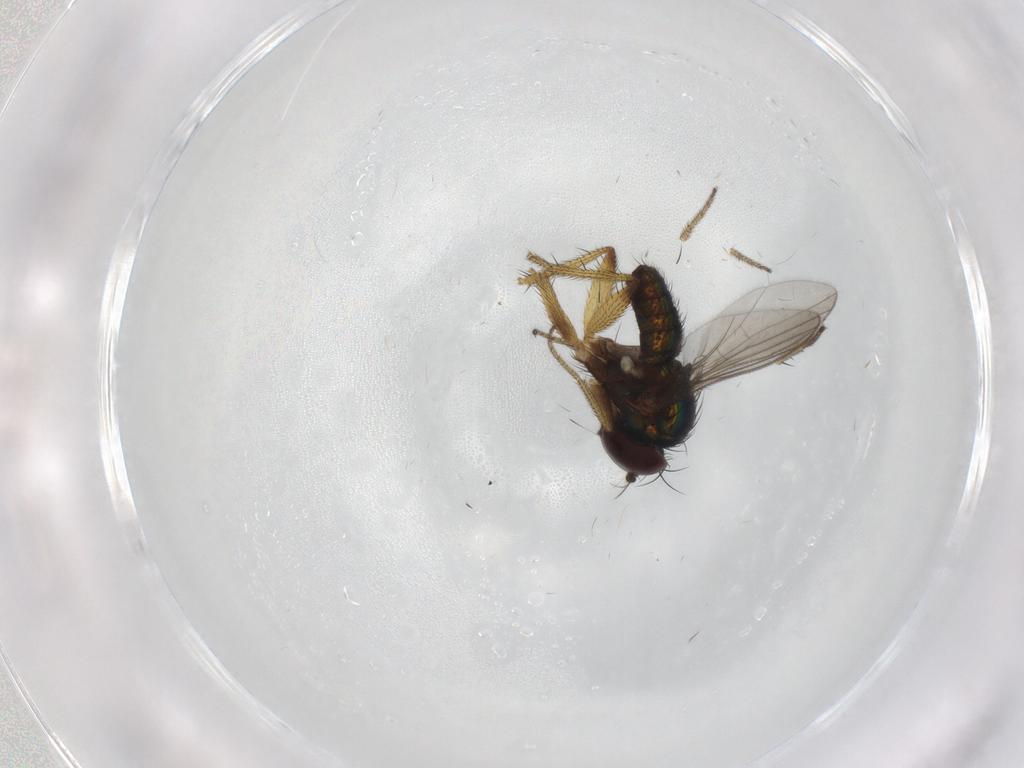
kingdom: Animalia
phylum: Arthropoda
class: Insecta
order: Diptera
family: Dolichopodidae
